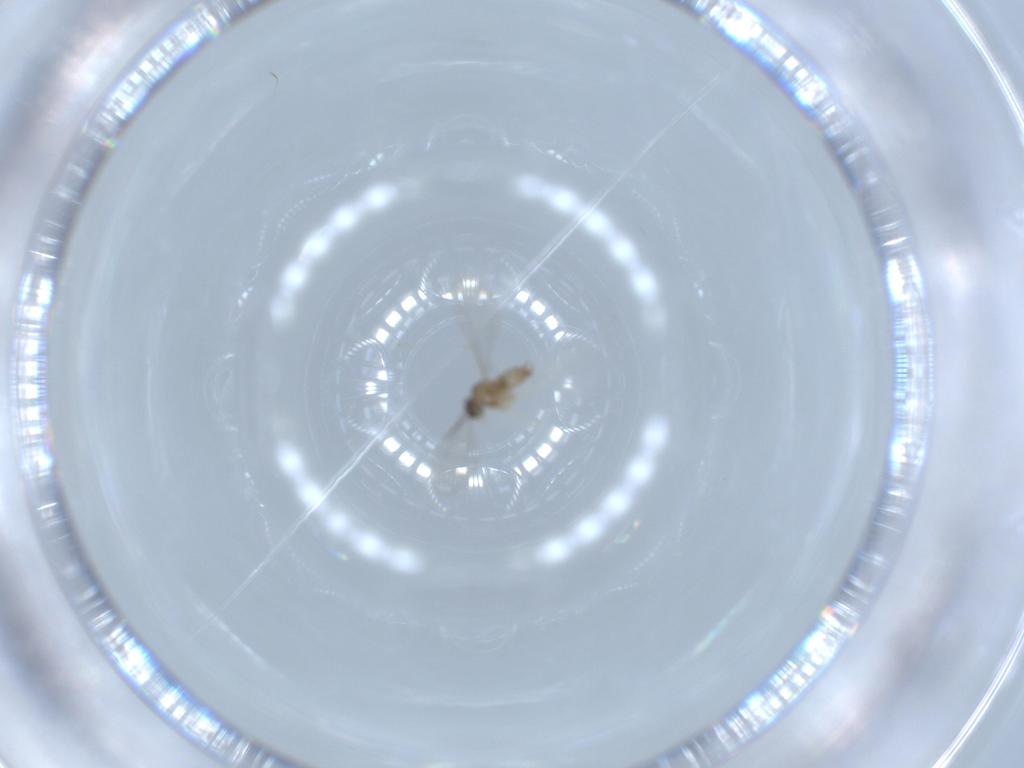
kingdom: Animalia
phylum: Arthropoda
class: Insecta
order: Diptera
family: Cecidomyiidae
